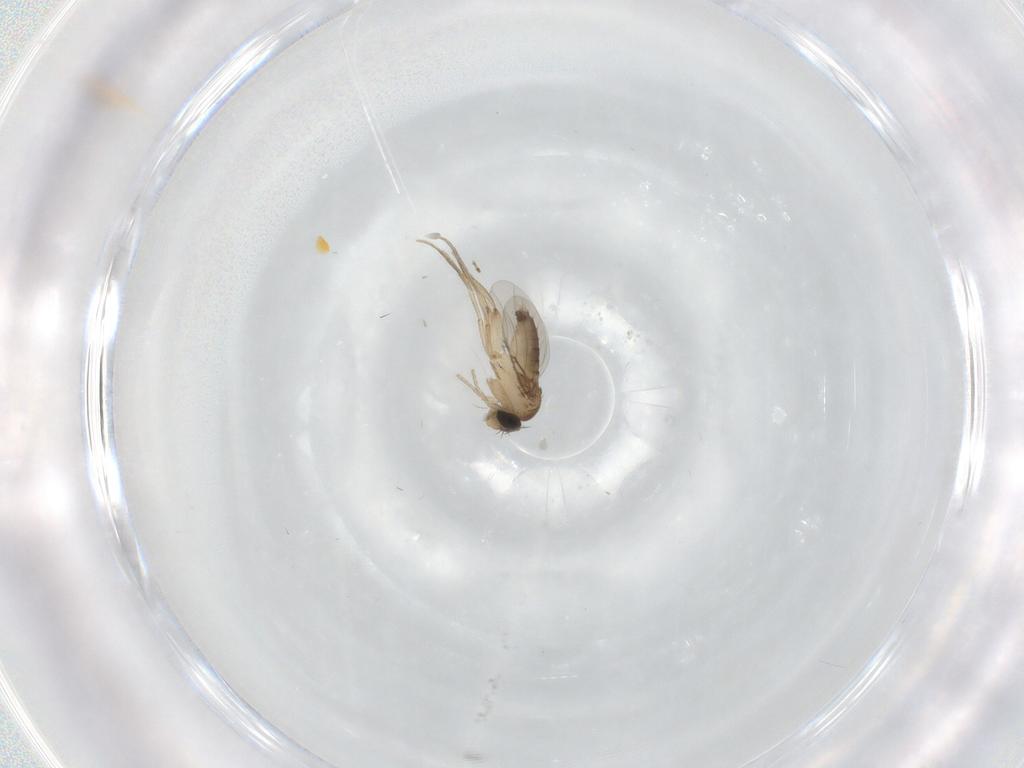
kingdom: Animalia
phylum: Arthropoda
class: Insecta
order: Diptera
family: Phoridae
